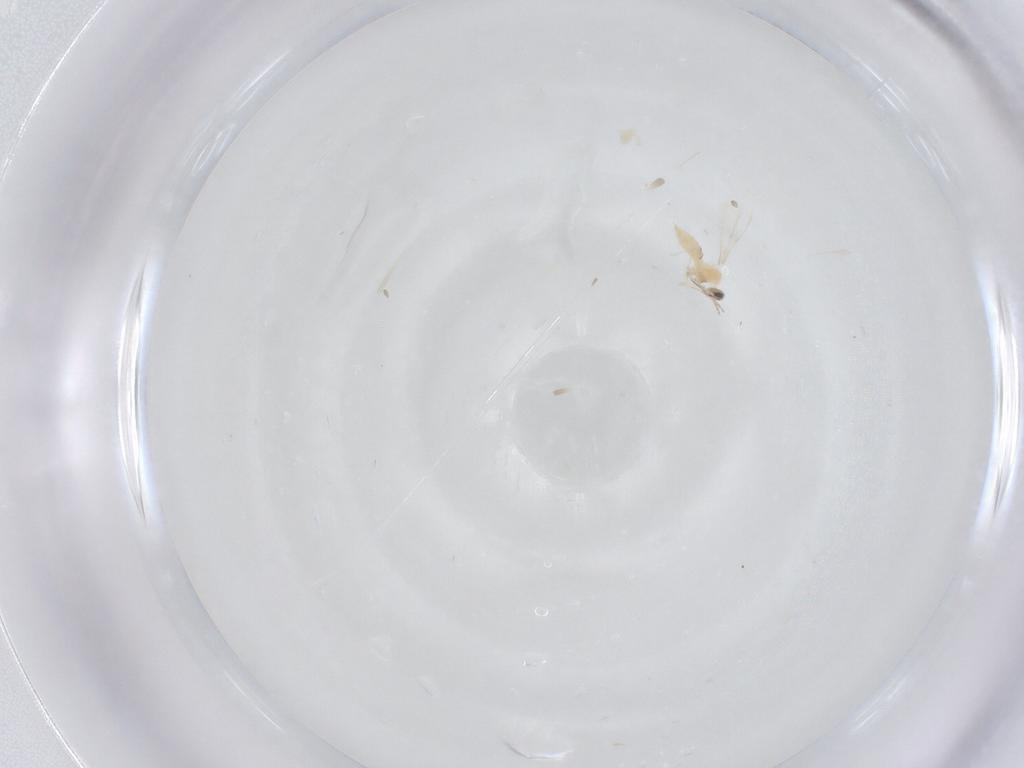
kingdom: Animalia
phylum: Arthropoda
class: Insecta
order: Diptera
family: Cecidomyiidae
